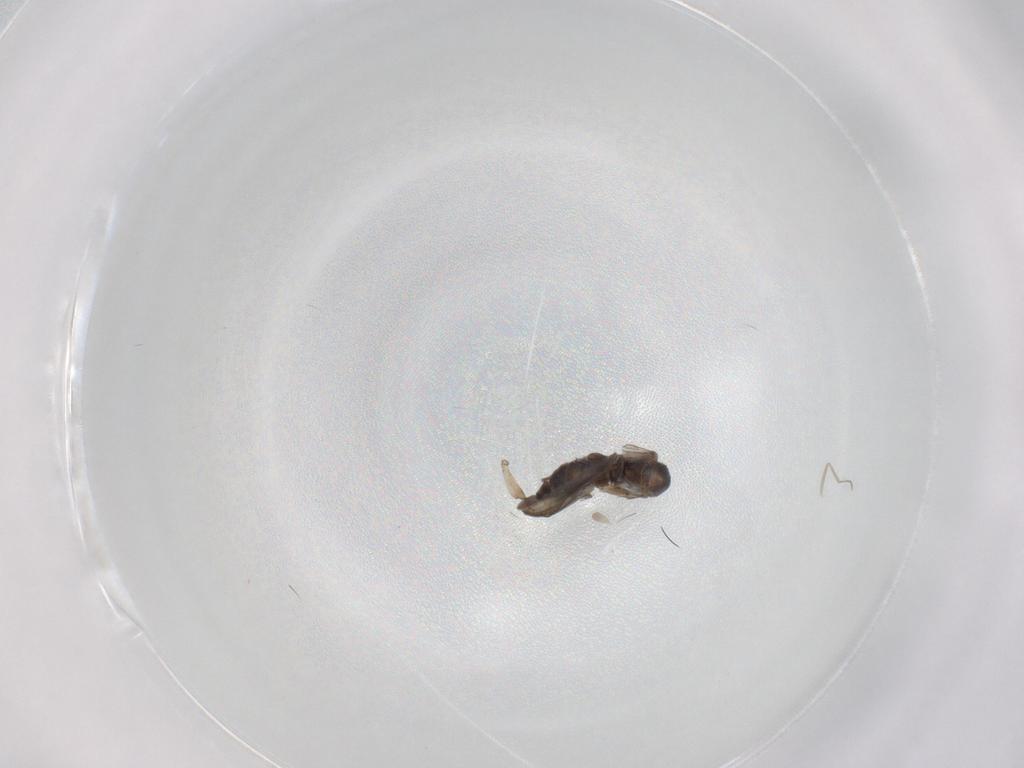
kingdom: Animalia
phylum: Arthropoda
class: Insecta
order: Diptera
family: Cecidomyiidae
